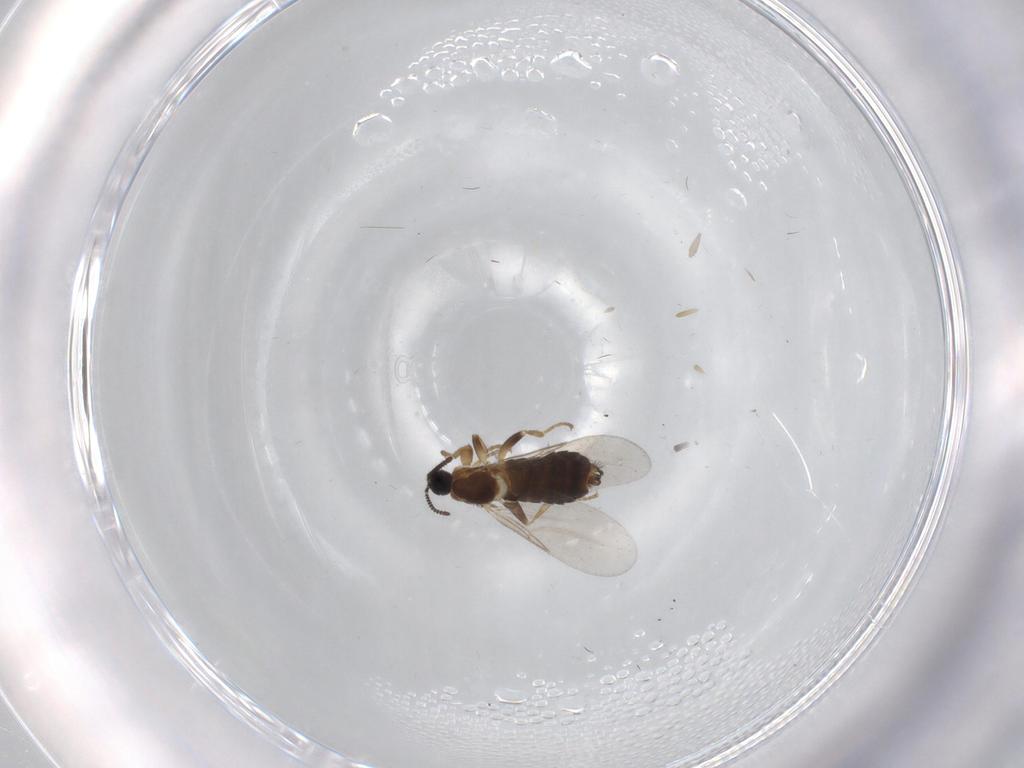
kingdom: Animalia
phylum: Arthropoda
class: Insecta
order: Diptera
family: Scatopsidae
